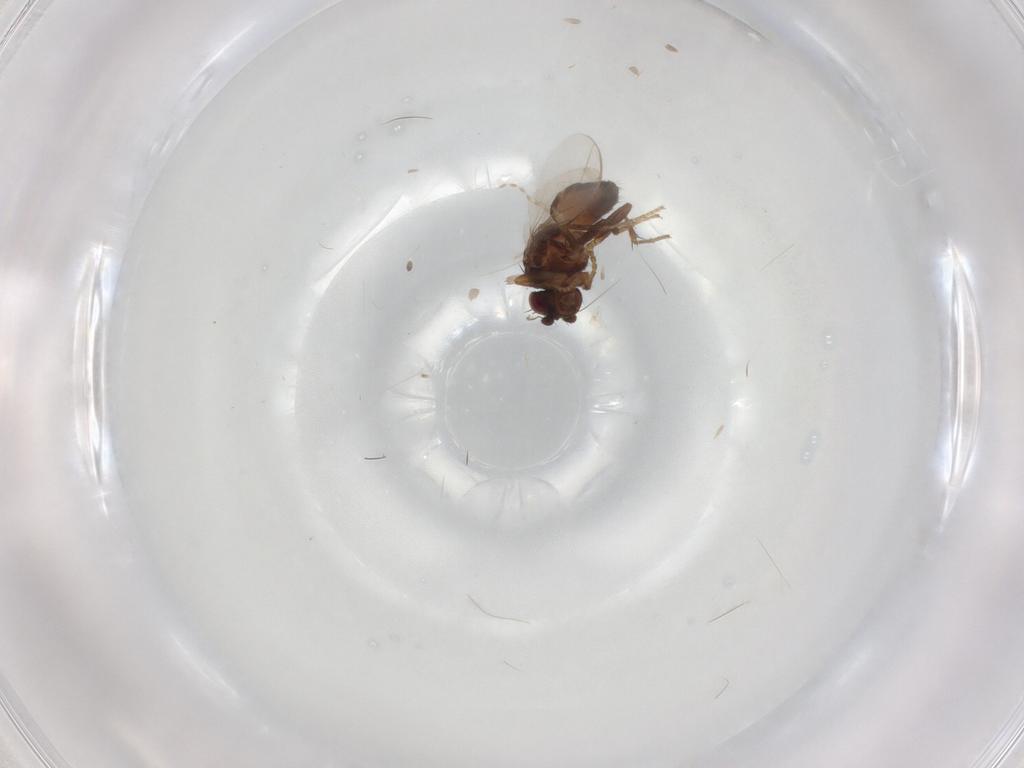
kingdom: Animalia
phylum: Arthropoda
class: Insecta
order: Diptera
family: Sphaeroceridae
